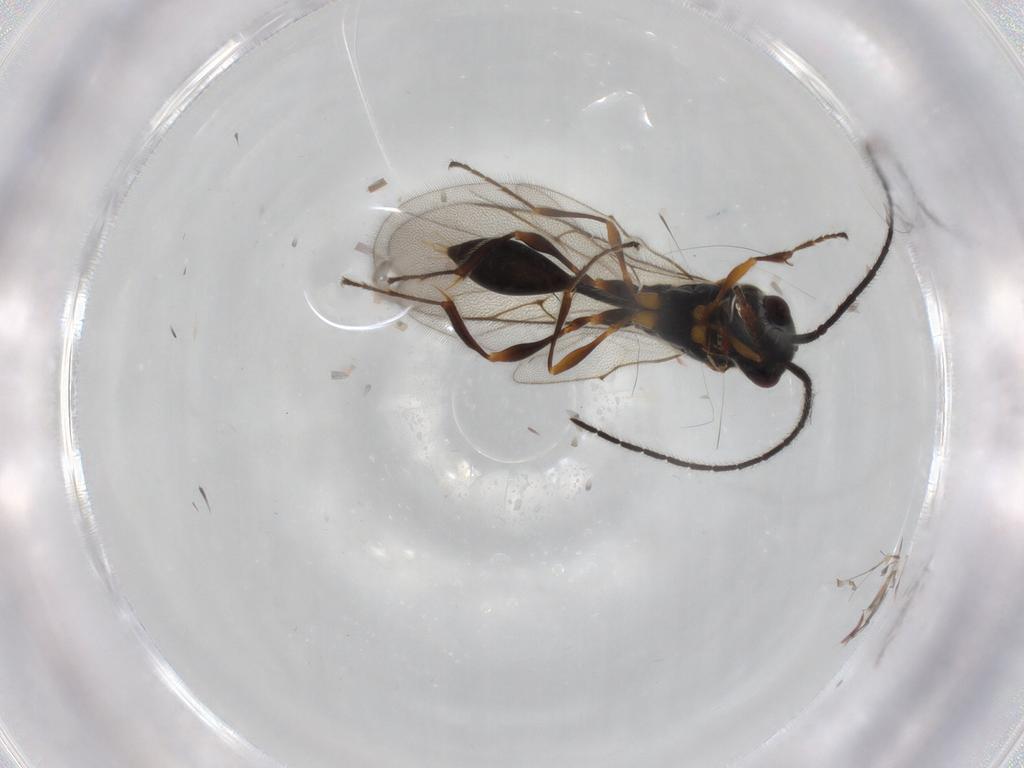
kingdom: Animalia
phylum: Arthropoda
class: Insecta
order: Hymenoptera
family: Diapriidae
